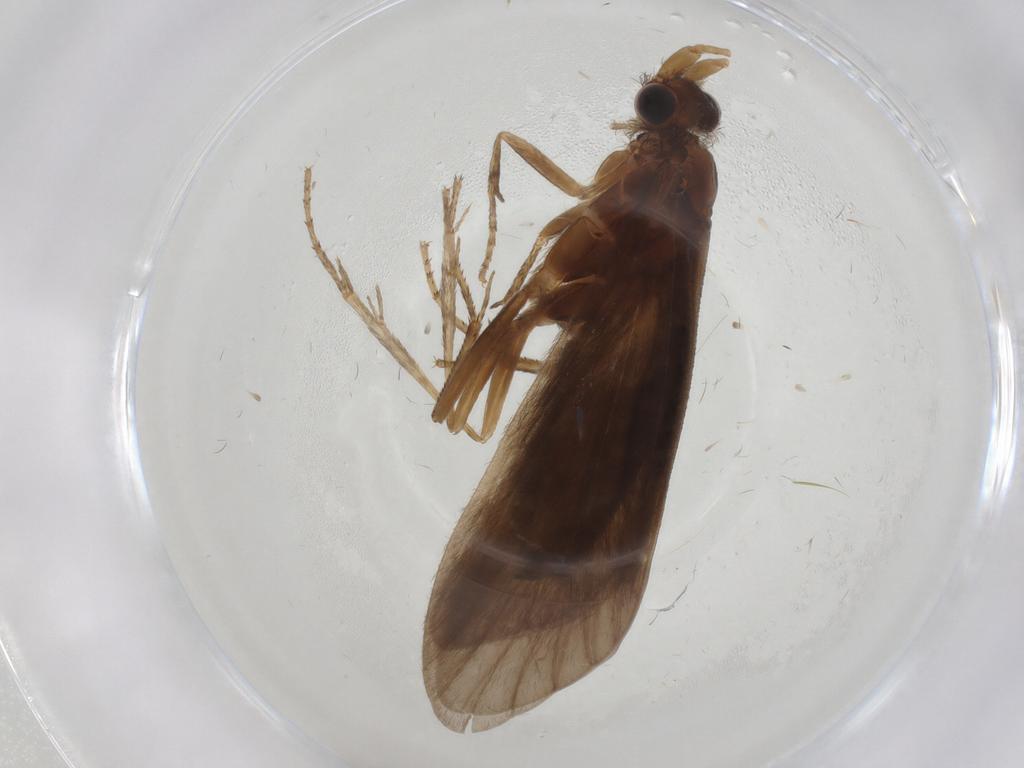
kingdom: Animalia
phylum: Arthropoda
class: Insecta
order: Trichoptera
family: Helicopsychidae
